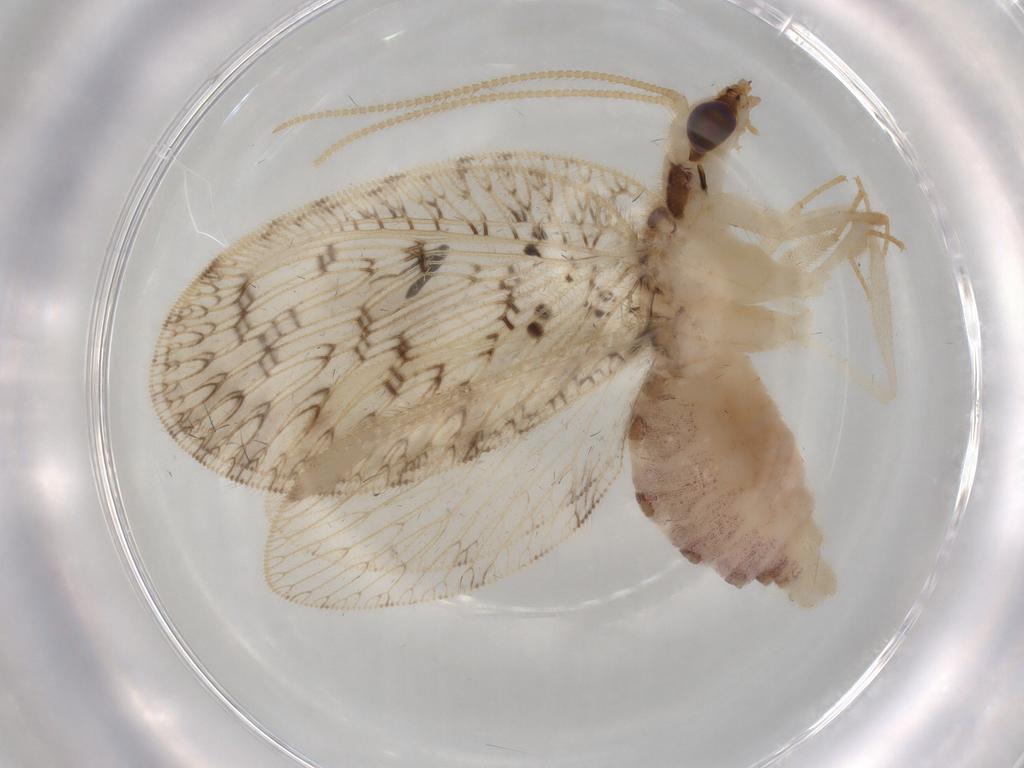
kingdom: Animalia
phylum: Arthropoda
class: Insecta
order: Neuroptera
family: Hemerobiidae
